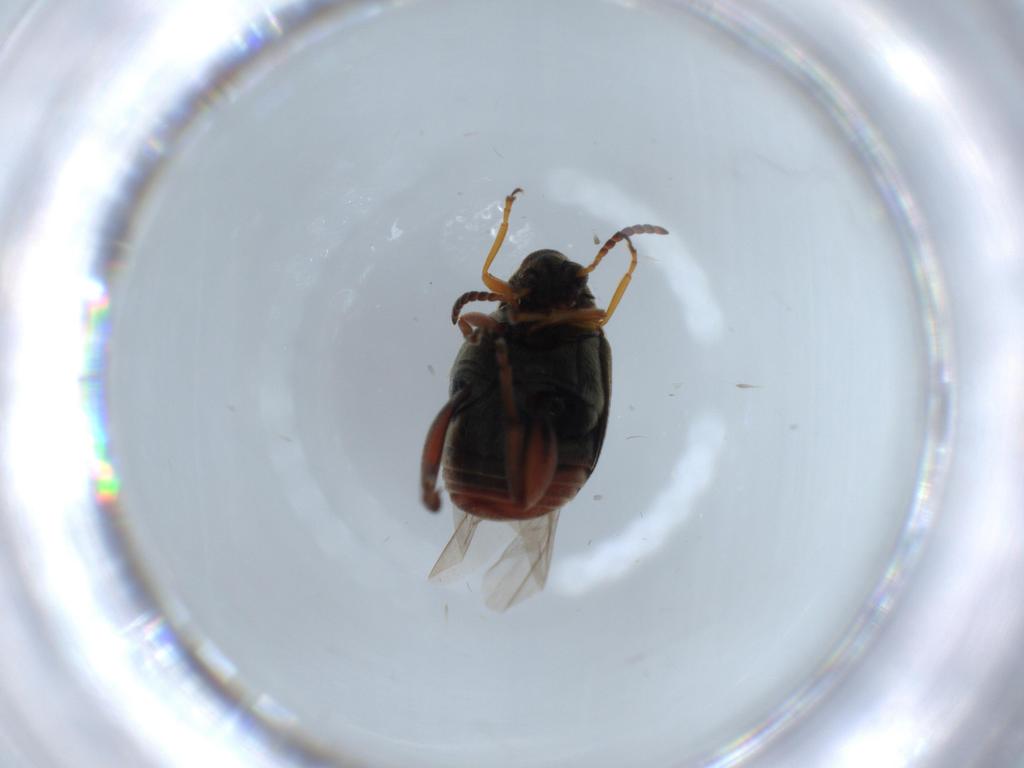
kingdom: Animalia
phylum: Arthropoda
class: Insecta
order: Coleoptera
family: Chrysomelidae
